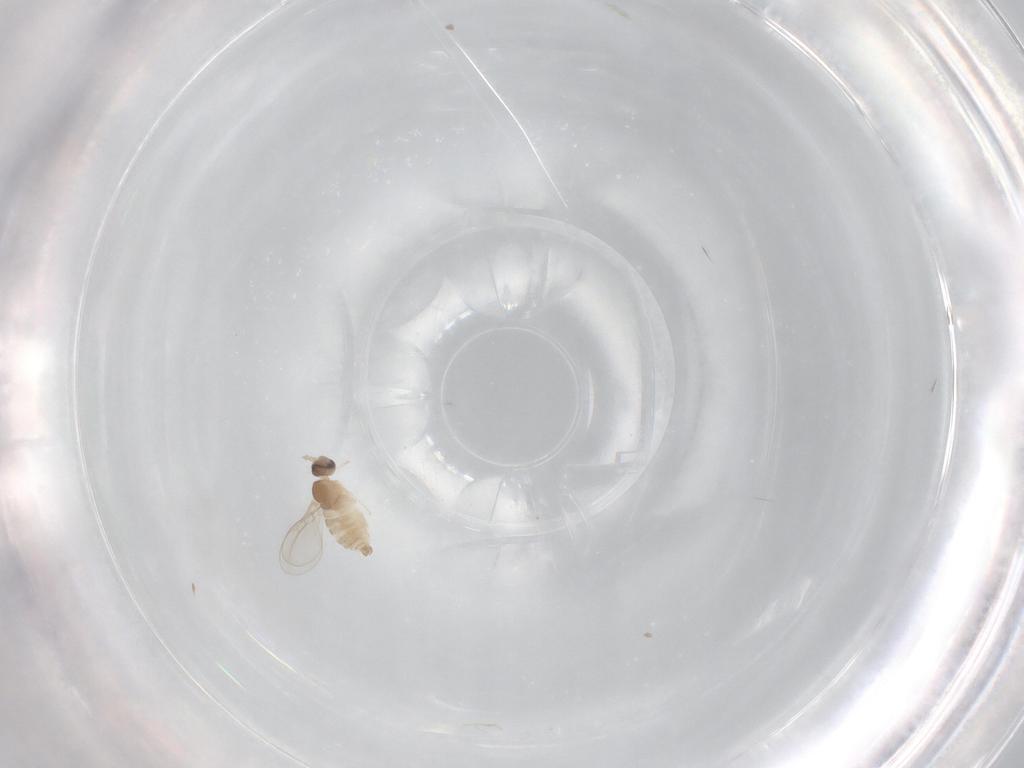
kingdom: Animalia
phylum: Arthropoda
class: Insecta
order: Diptera
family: Cecidomyiidae
